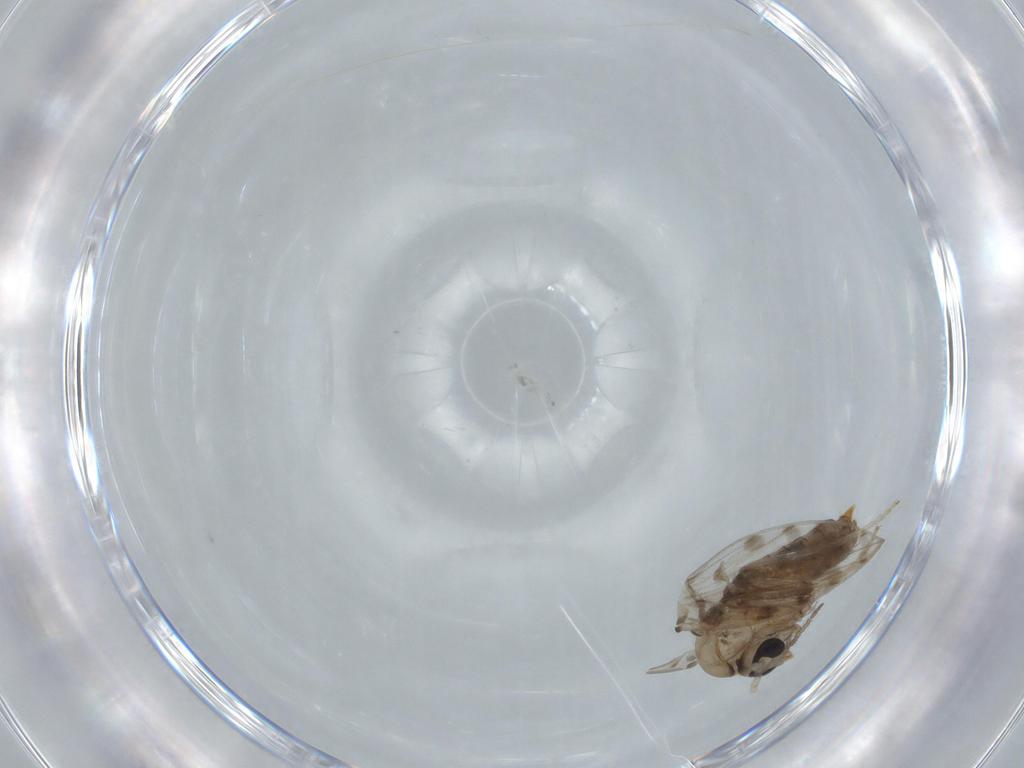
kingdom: Animalia
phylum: Arthropoda
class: Insecta
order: Diptera
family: Psychodidae
